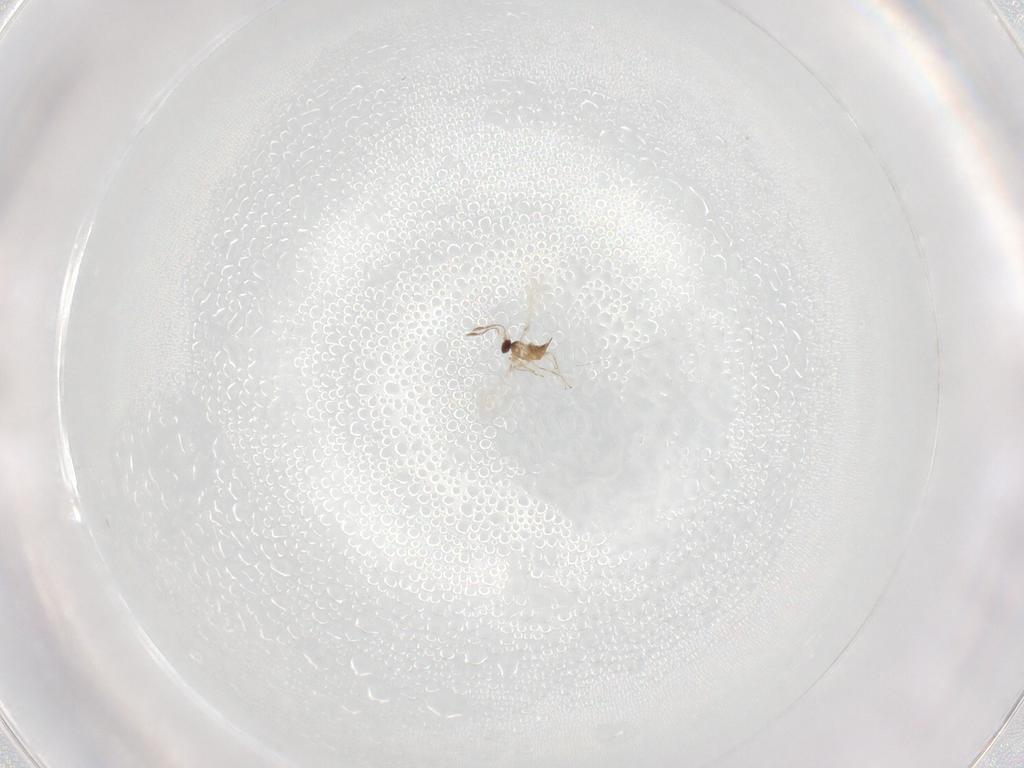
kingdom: Animalia
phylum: Arthropoda
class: Insecta
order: Hymenoptera
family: Mymaridae
